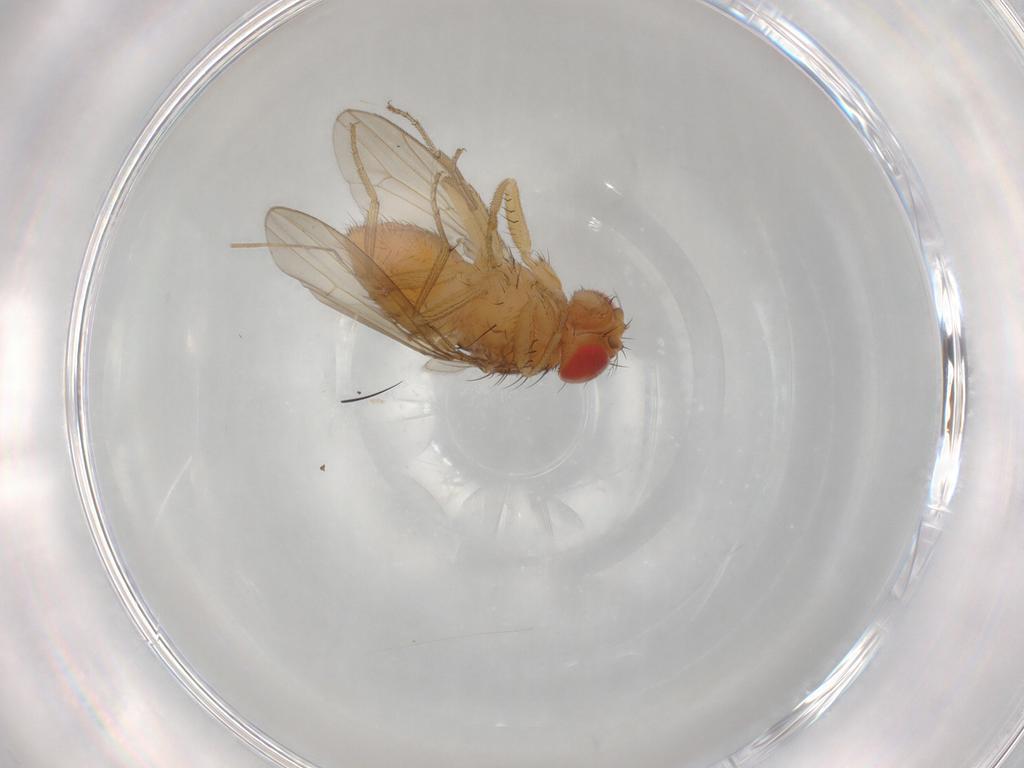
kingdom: Animalia
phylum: Arthropoda
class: Insecta
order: Diptera
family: Drosophilidae
